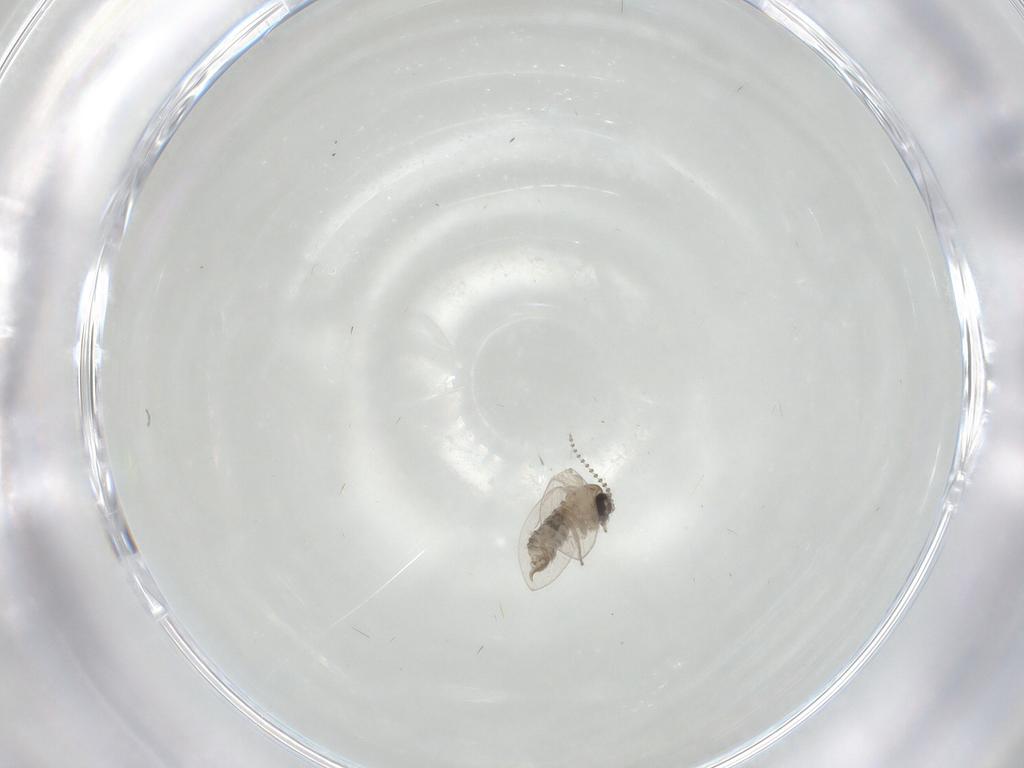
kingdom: Animalia
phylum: Arthropoda
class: Insecta
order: Diptera
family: Psychodidae
